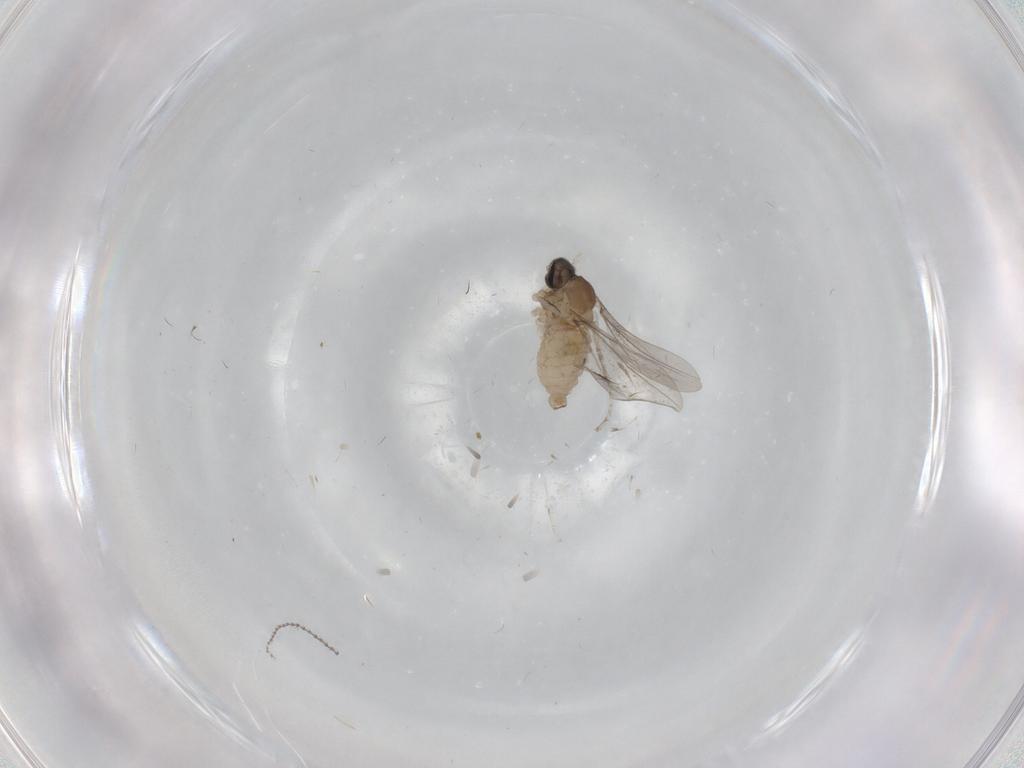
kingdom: Animalia
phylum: Arthropoda
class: Insecta
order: Diptera
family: Cecidomyiidae
